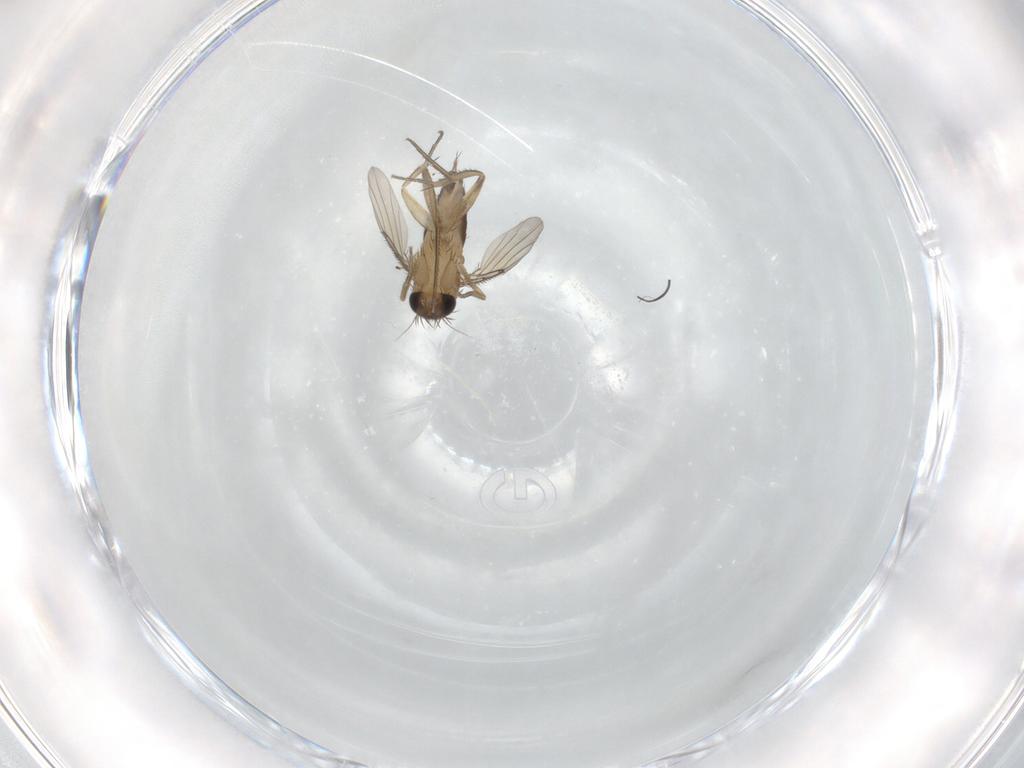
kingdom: Animalia
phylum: Arthropoda
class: Insecta
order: Diptera
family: Phoridae
